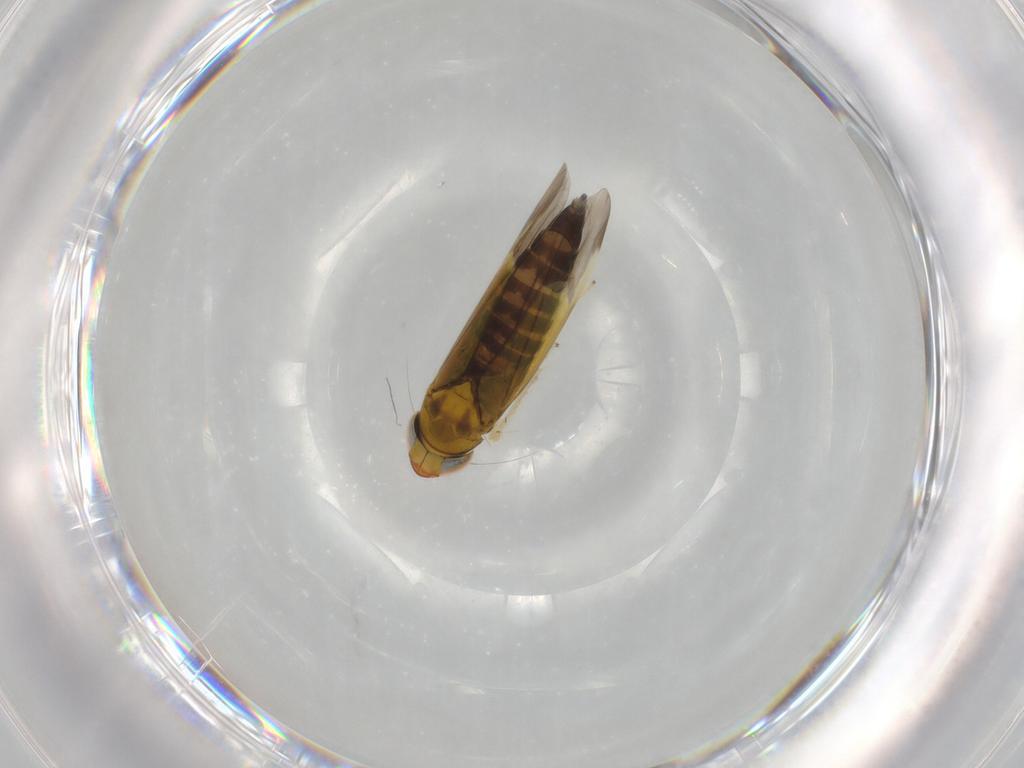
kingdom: Animalia
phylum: Arthropoda
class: Insecta
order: Hemiptera
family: Cicadellidae
